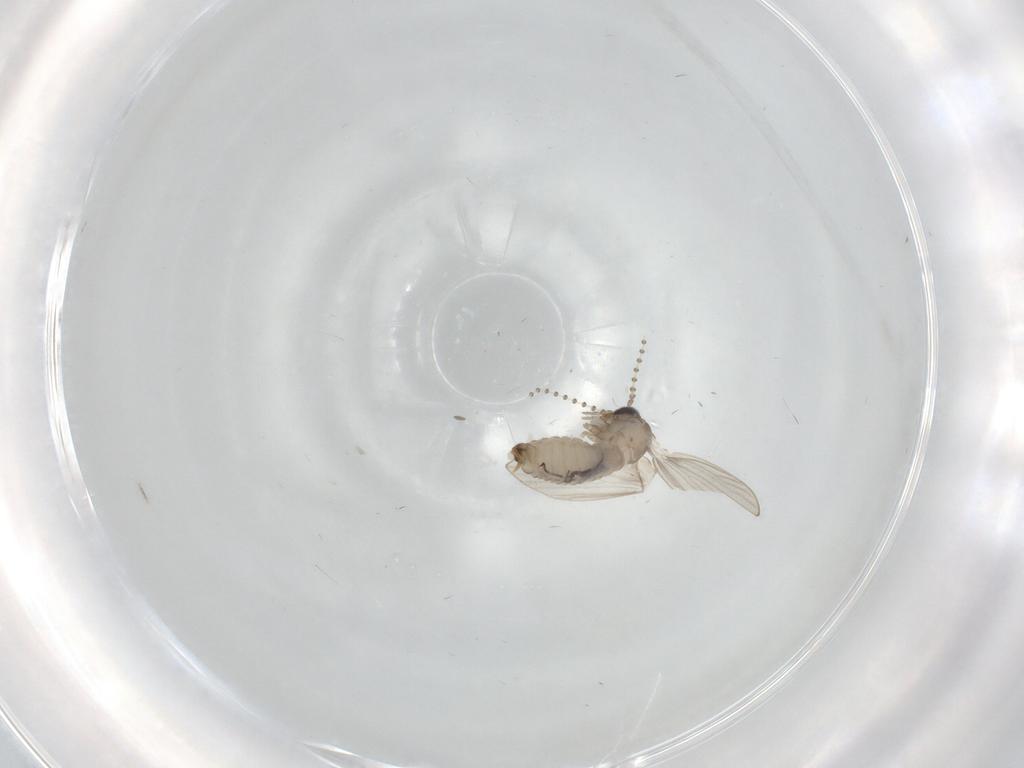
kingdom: Animalia
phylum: Arthropoda
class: Insecta
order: Diptera
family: Psychodidae
